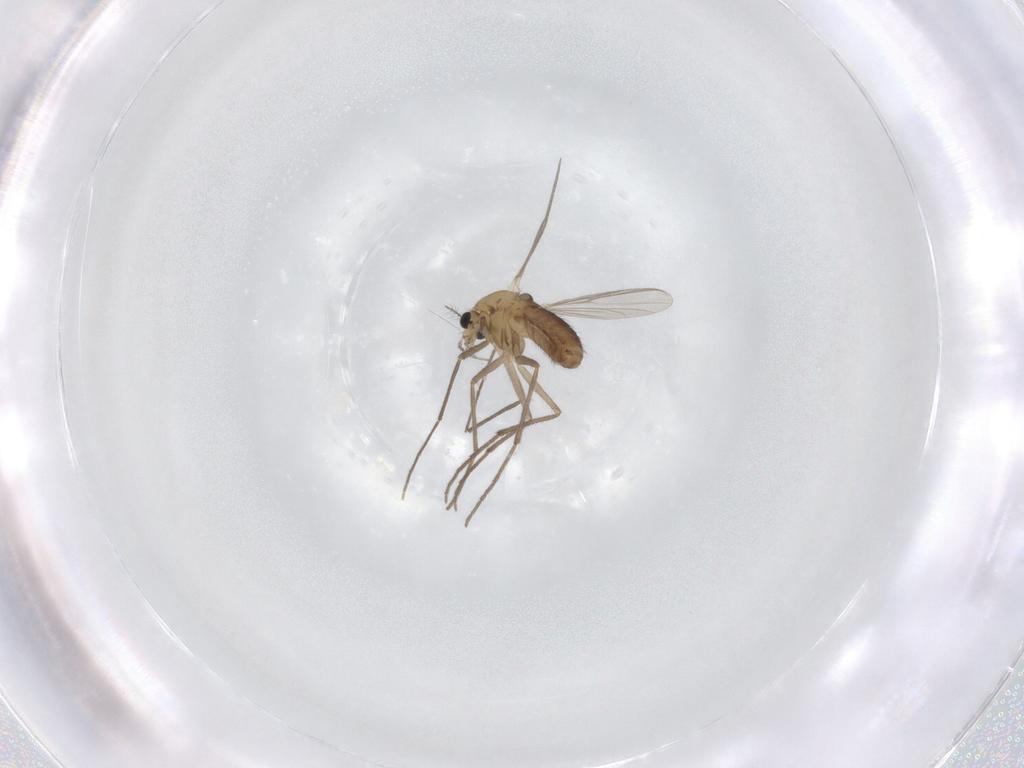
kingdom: Animalia
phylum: Arthropoda
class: Insecta
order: Diptera
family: Chironomidae
